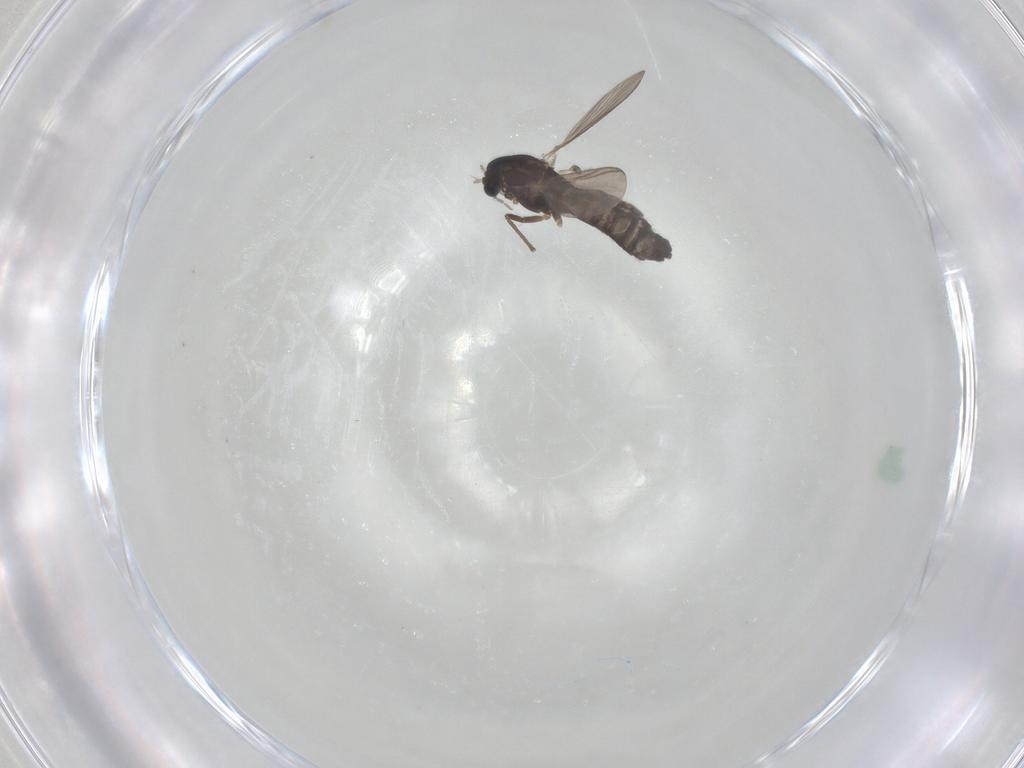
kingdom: Animalia
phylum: Arthropoda
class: Insecta
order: Diptera
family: Chironomidae
